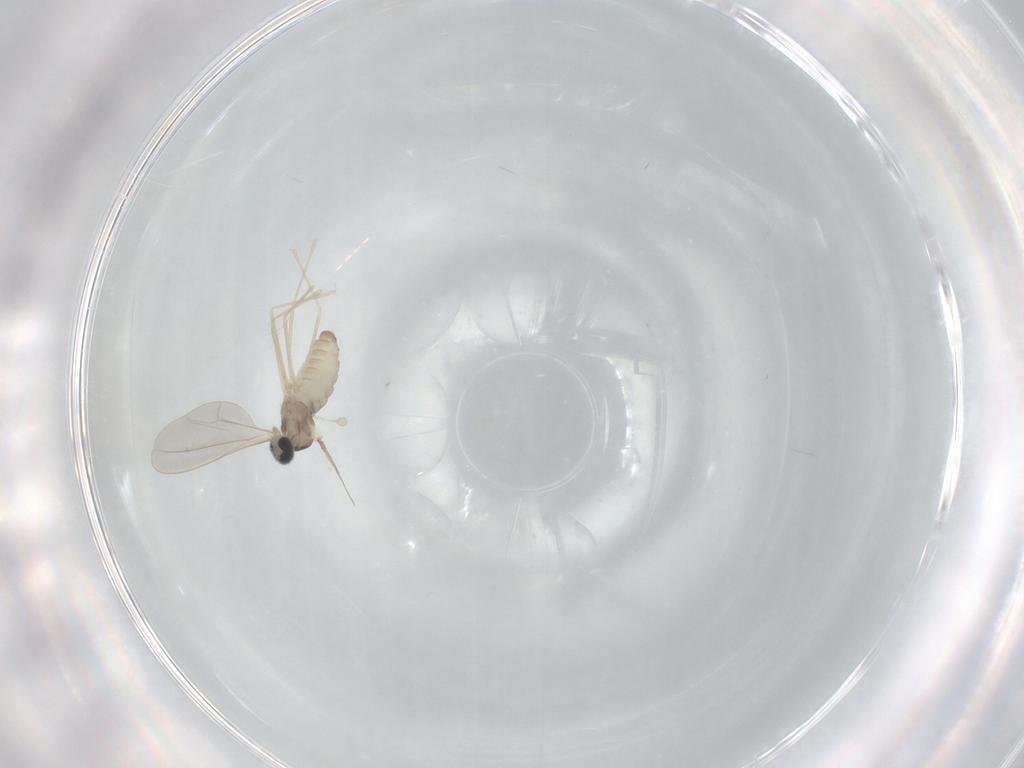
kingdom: Animalia
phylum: Arthropoda
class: Insecta
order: Diptera
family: Cecidomyiidae
